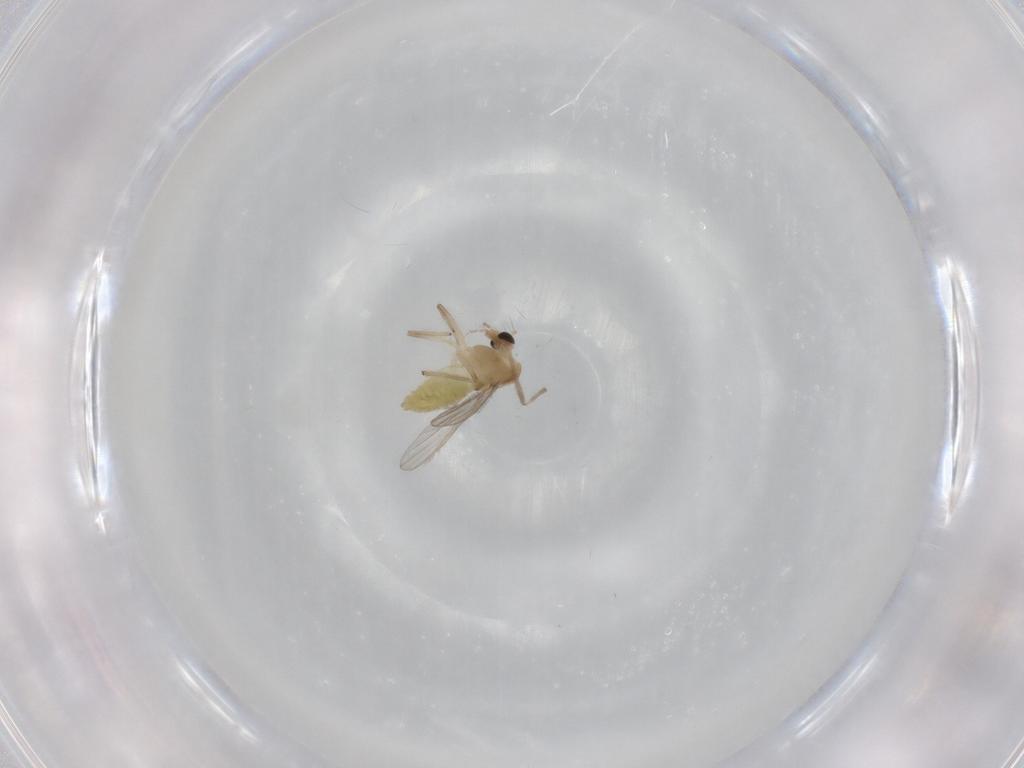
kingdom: Animalia
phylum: Arthropoda
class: Insecta
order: Diptera
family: Chironomidae
